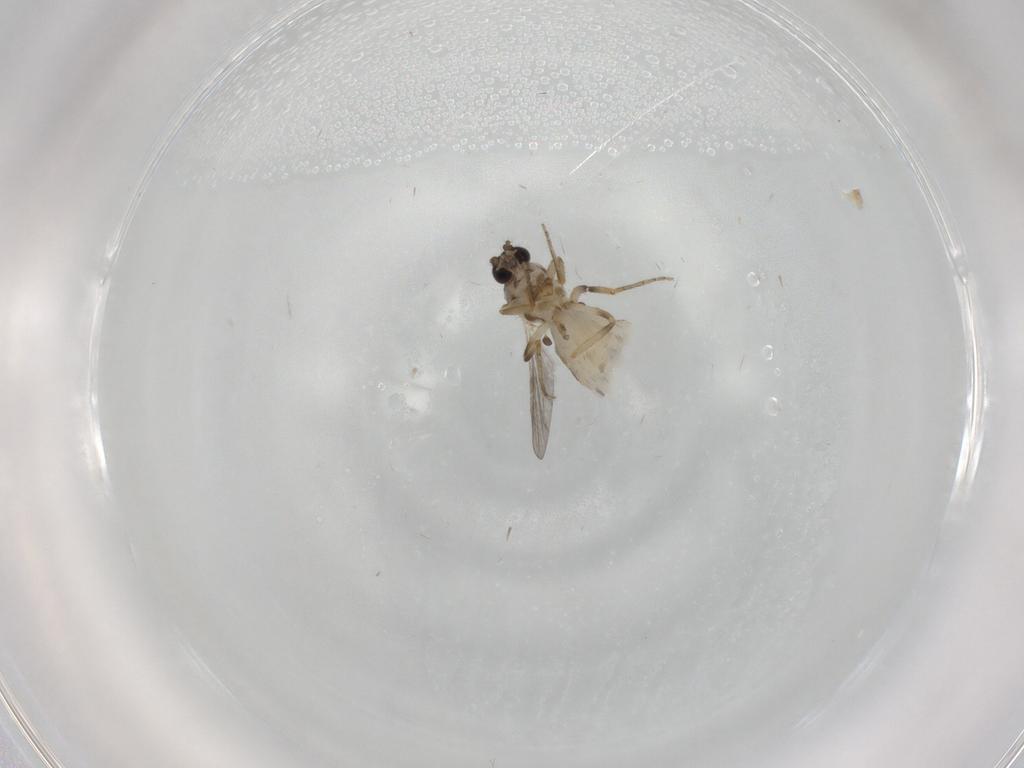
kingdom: Animalia
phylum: Arthropoda
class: Insecta
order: Diptera
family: Ceratopogonidae
